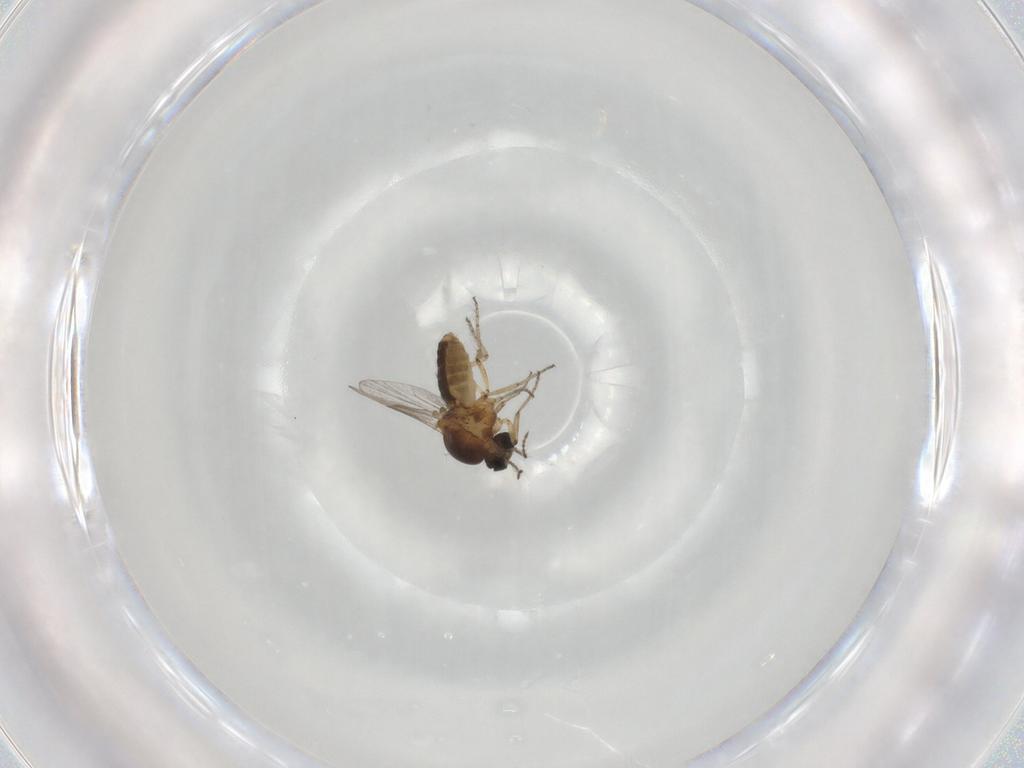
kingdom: Animalia
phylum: Arthropoda
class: Insecta
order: Diptera
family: Ceratopogonidae
